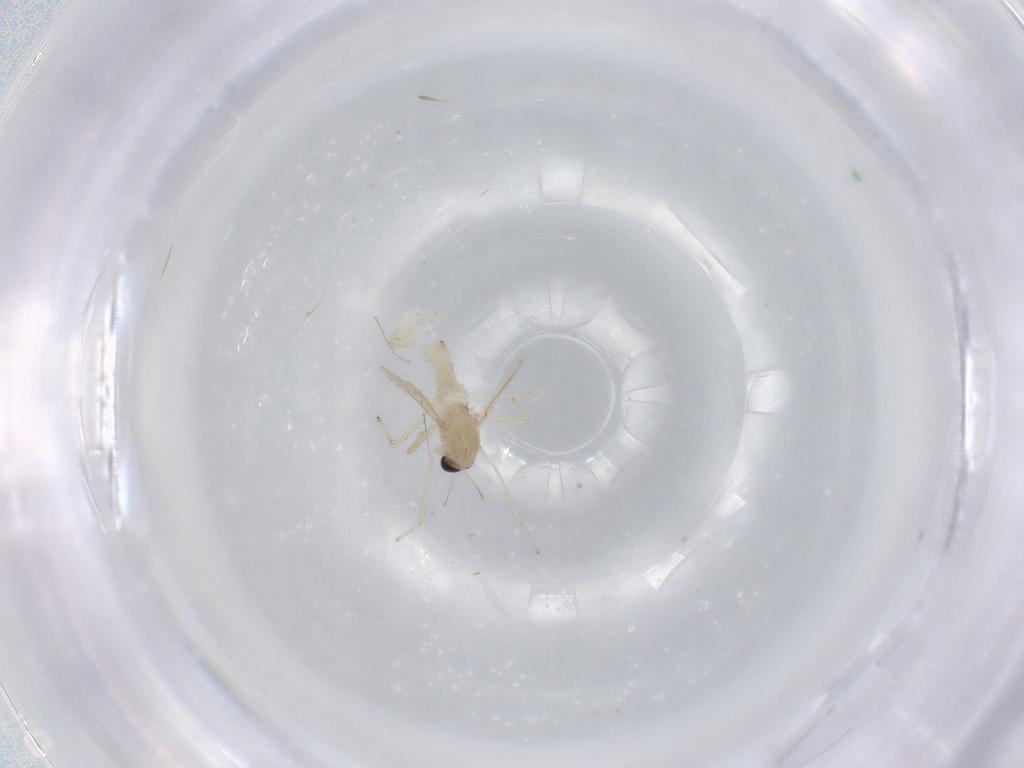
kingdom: Animalia
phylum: Arthropoda
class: Insecta
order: Diptera
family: Chironomidae
